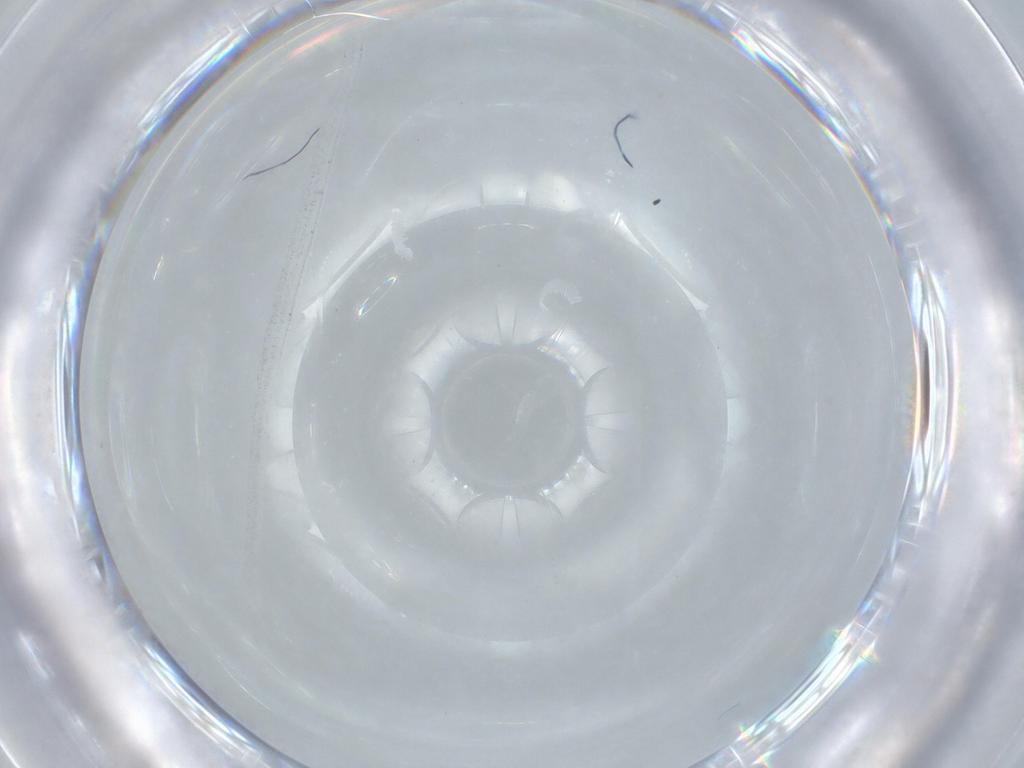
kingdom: Animalia
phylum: Arthropoda
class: Insecta
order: Diptera
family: Cecidomyiidae
